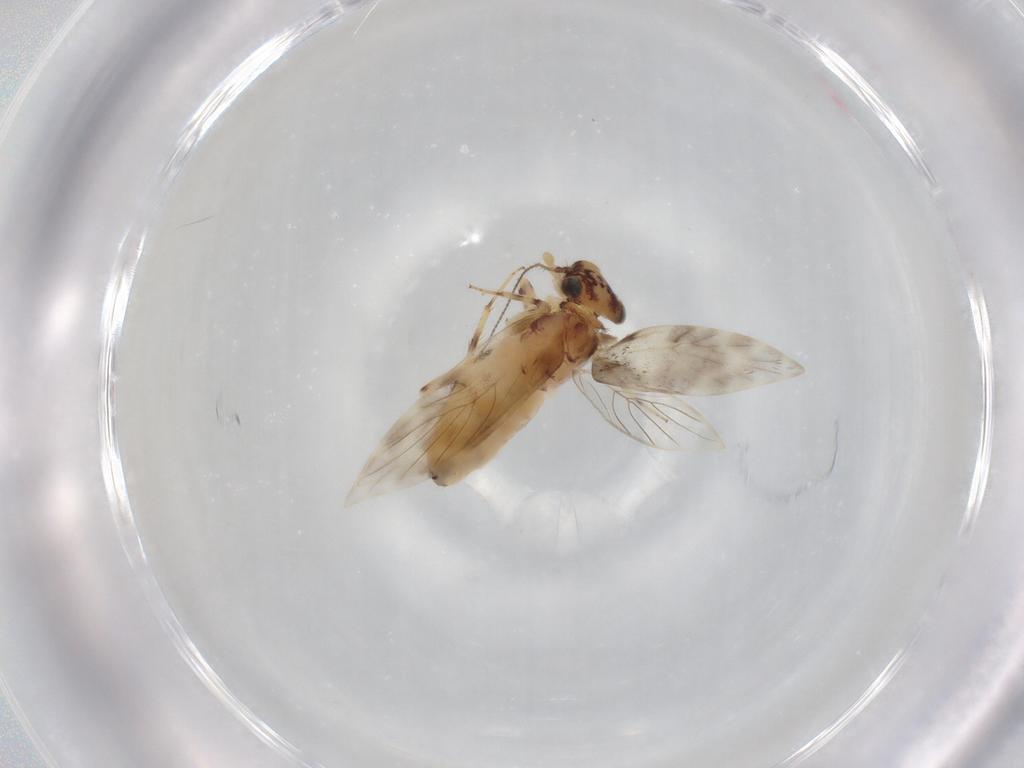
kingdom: Animalia
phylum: Arthropoda
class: Insecta
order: Psocodea
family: Lepidopsocidae
